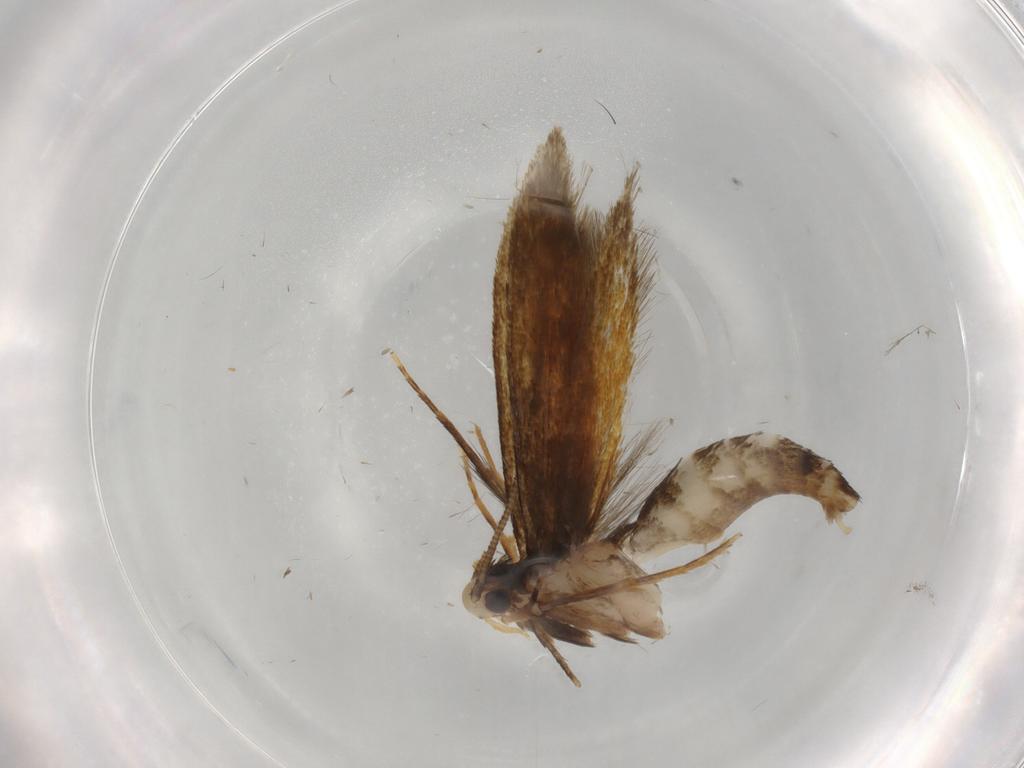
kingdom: Animalia
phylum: Arthropoda
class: Insecta
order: Lepidoptera
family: Tineidae
